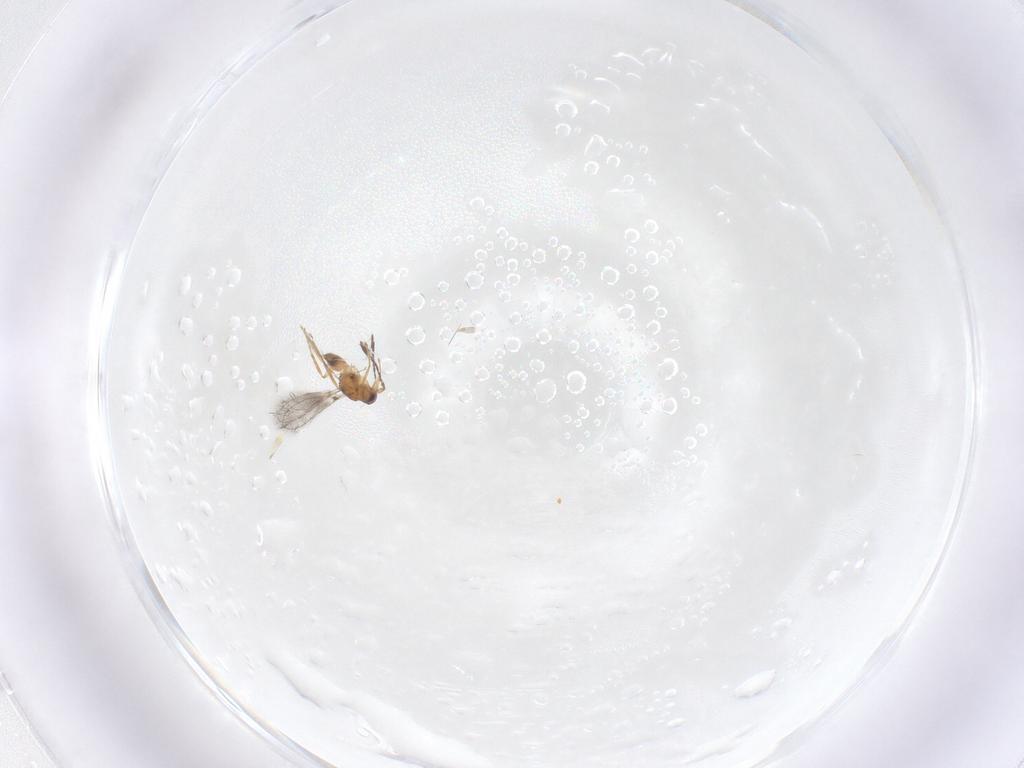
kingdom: Animalia
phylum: Arthropoda
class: Insecta
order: Hymenoptera
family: Mymaridae
